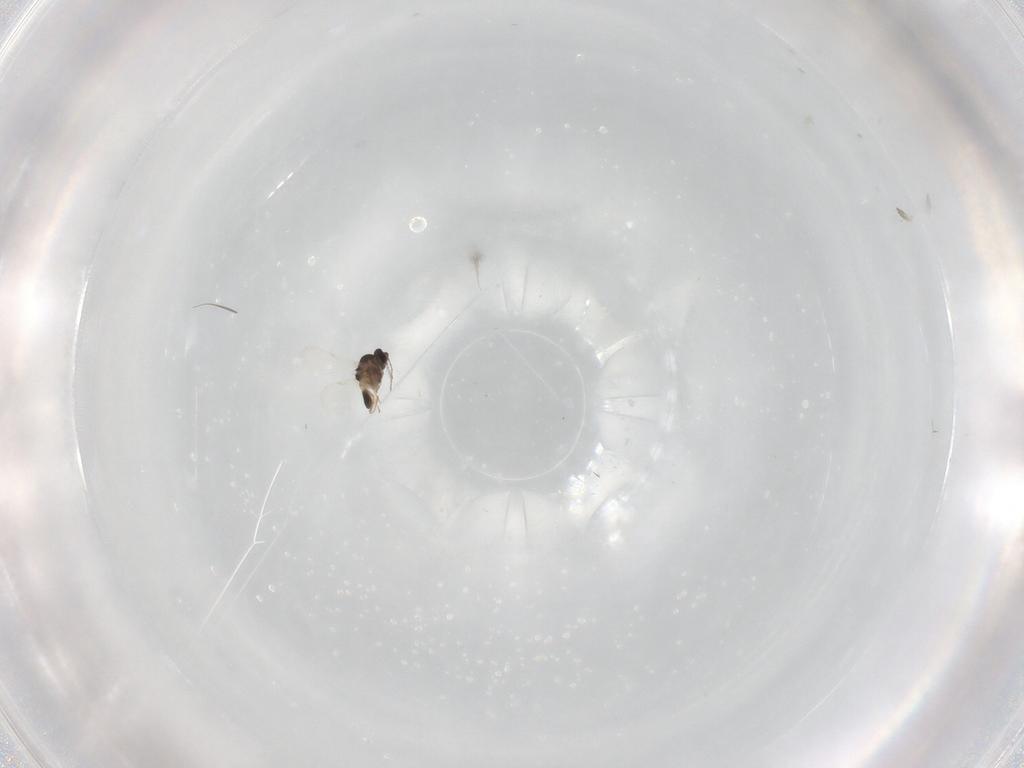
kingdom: Animalia
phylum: Arthropoda
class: Insecta
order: Diptera
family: Ceratopogonidae
